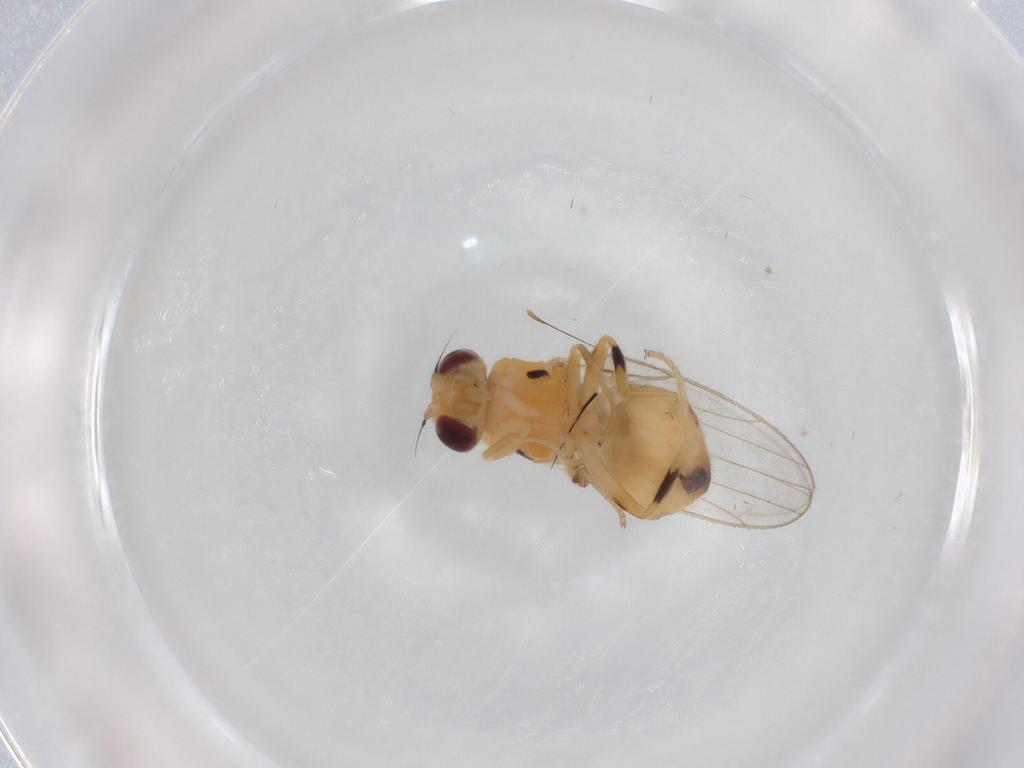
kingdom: Animalia
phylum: Arthropoda
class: Insecta
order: Diptera
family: Chloropidae
